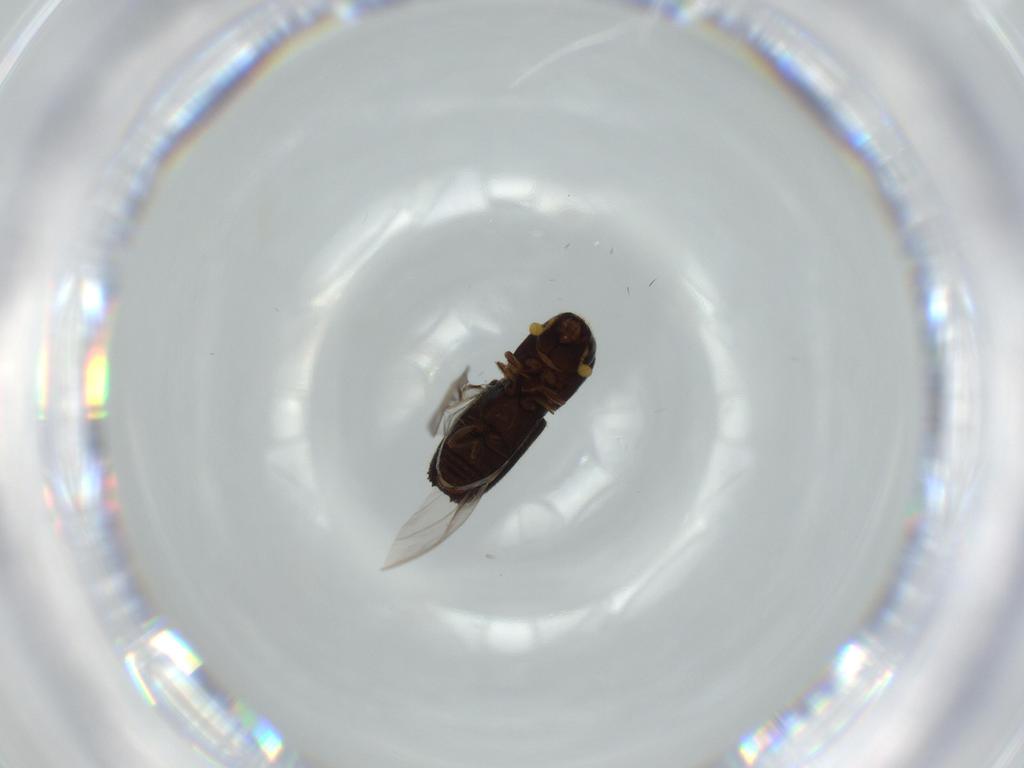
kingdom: Animalia
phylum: Arthropoda
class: Insecta
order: Coleoptera
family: Curculionidae
